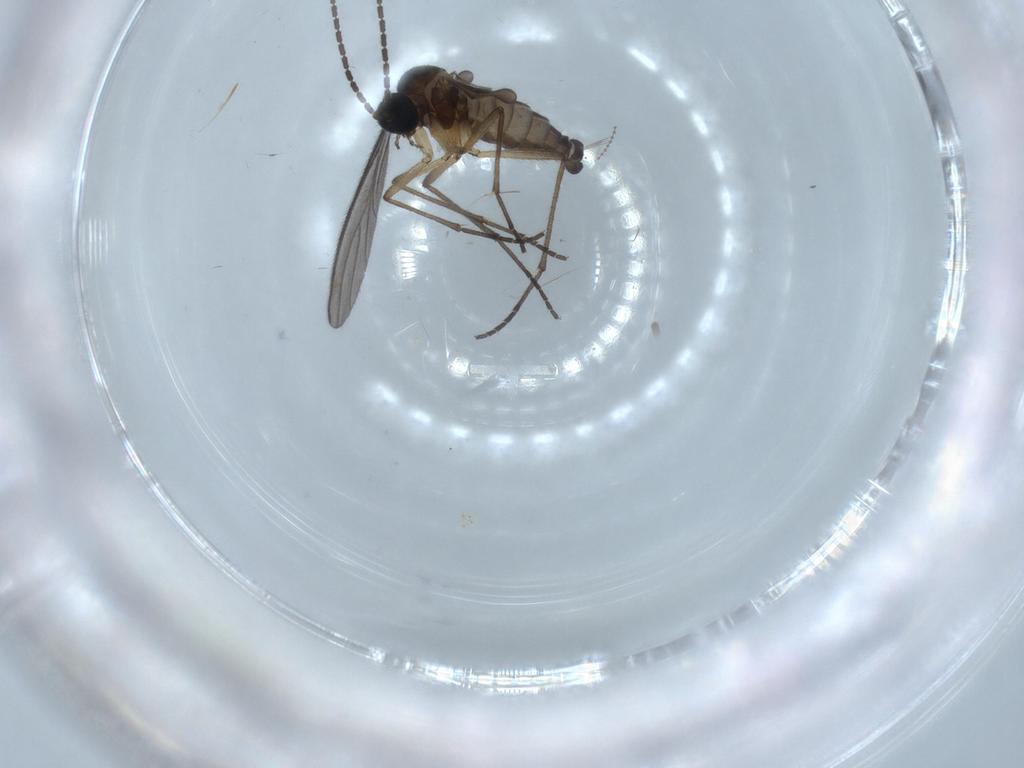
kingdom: Animalia
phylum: Arthropoda
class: Insecta
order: Diptera
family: Sciaridae
